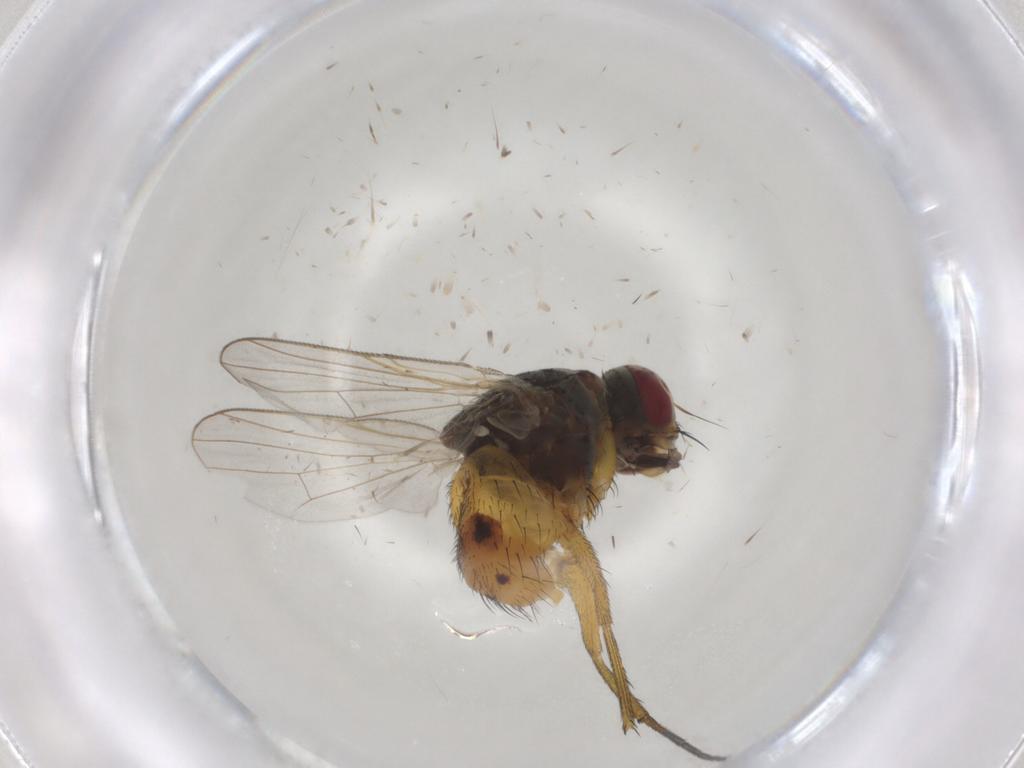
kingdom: Animalia
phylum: Arthropoda
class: Insecta
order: Diptera
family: Muscidae
